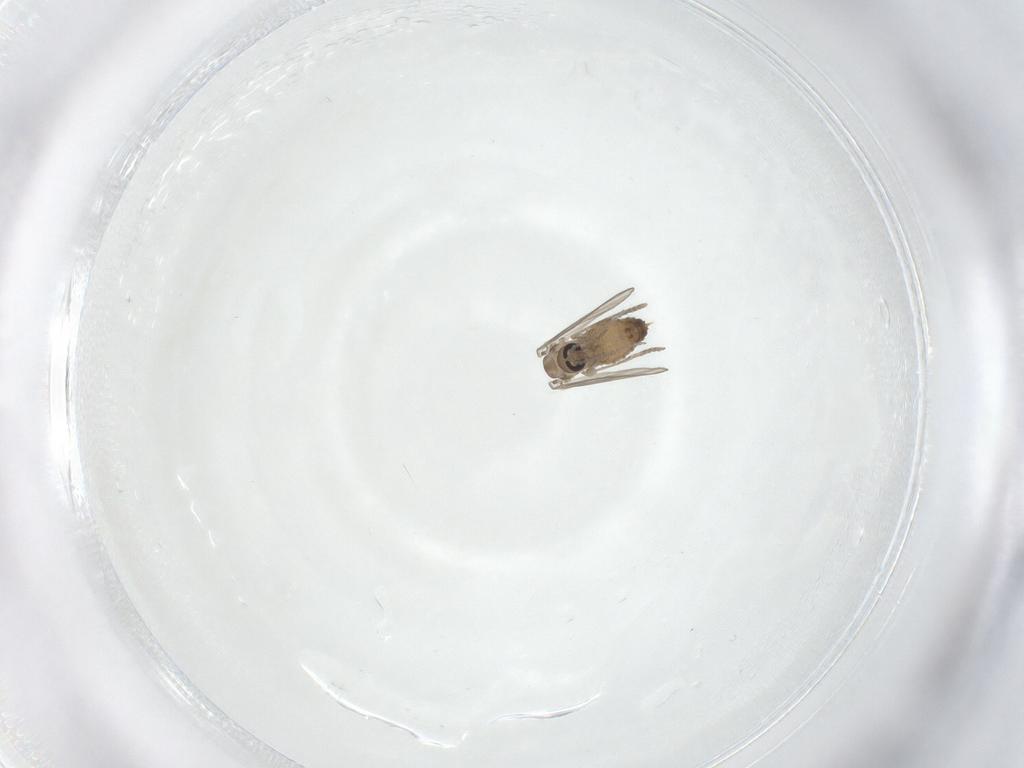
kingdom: Animalia
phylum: Arthropoda
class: Insecta
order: Diptera
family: Psychodidae
